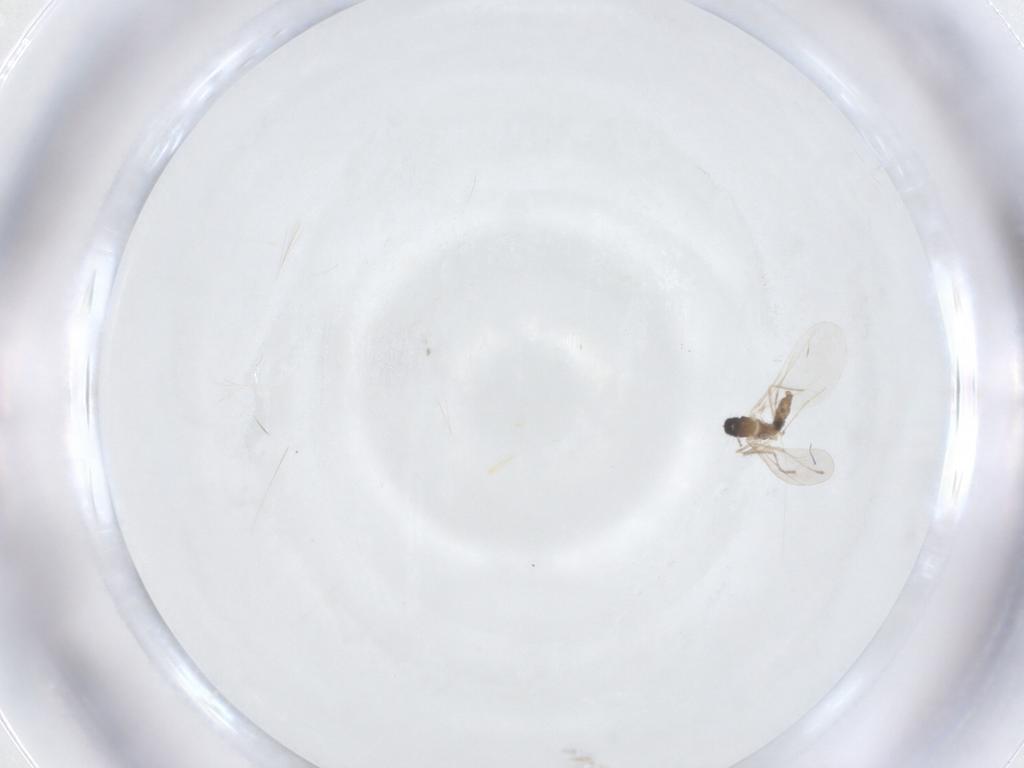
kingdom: Animalia
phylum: Arthropoda
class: Insecta
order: Diptera
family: Cecidomyiidae
